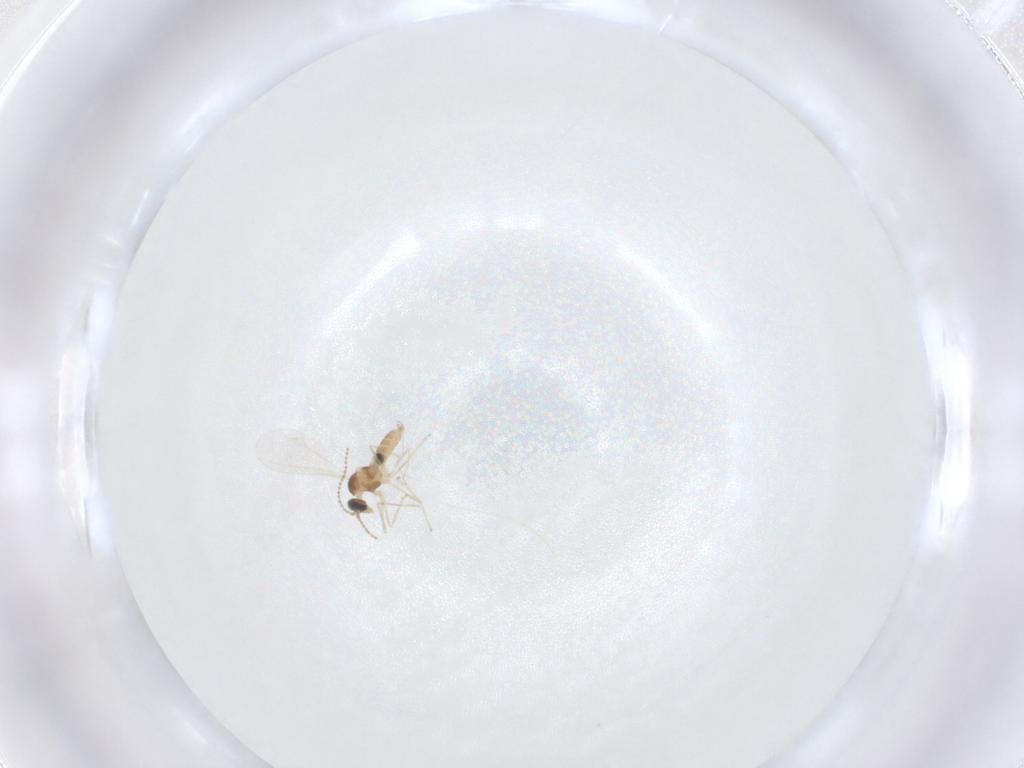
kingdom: Animalia
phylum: Arthropoda
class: Insecta
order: Diptera
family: Cecidomyiidae
